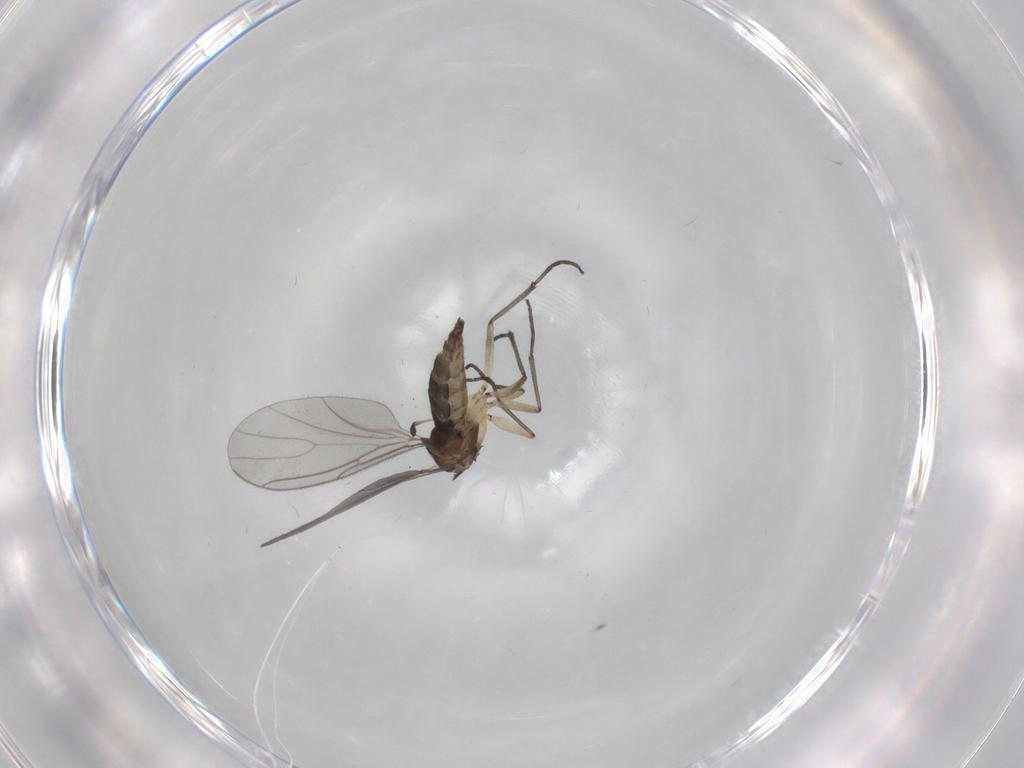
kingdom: Animalia
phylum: Arthropoda
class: Insecta
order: Diptera
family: Sciaridae
